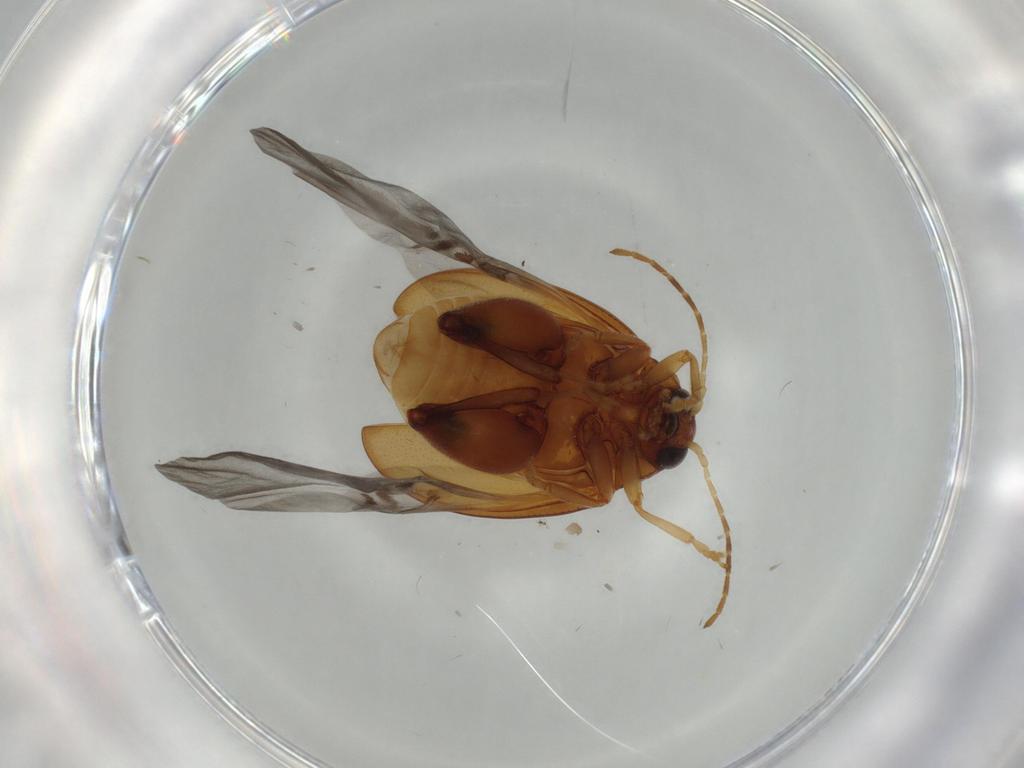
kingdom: Animalia
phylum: Arthropoda
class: Insecta
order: Coleoptera
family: Chrysomelidae
